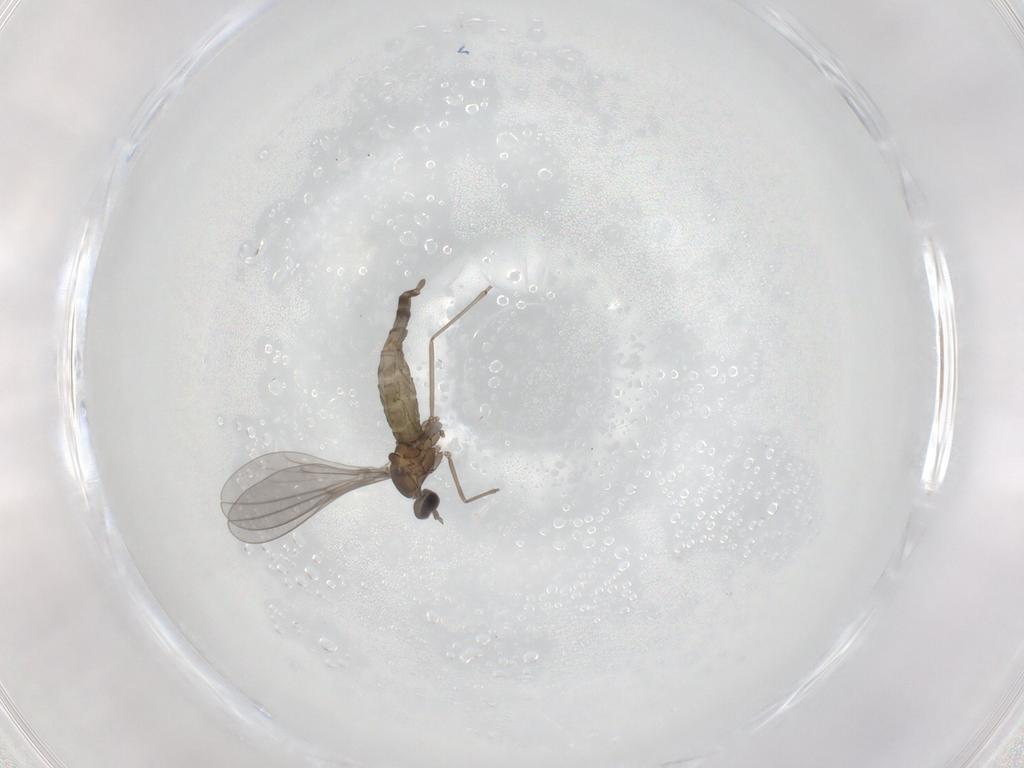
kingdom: Animalia
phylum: Arthropoda
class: Insecta
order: Diptera
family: Cecidomyiidae
